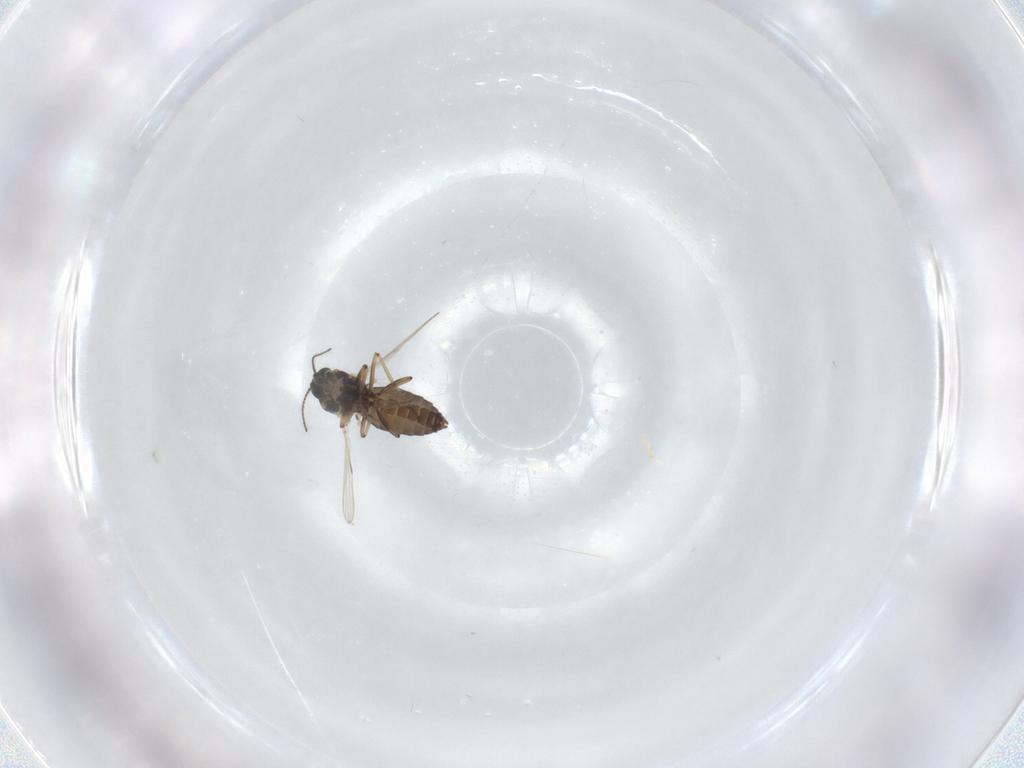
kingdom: Animalia
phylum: Arthropoda
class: Insecta
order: Diptera
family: Ceratopogonidae
